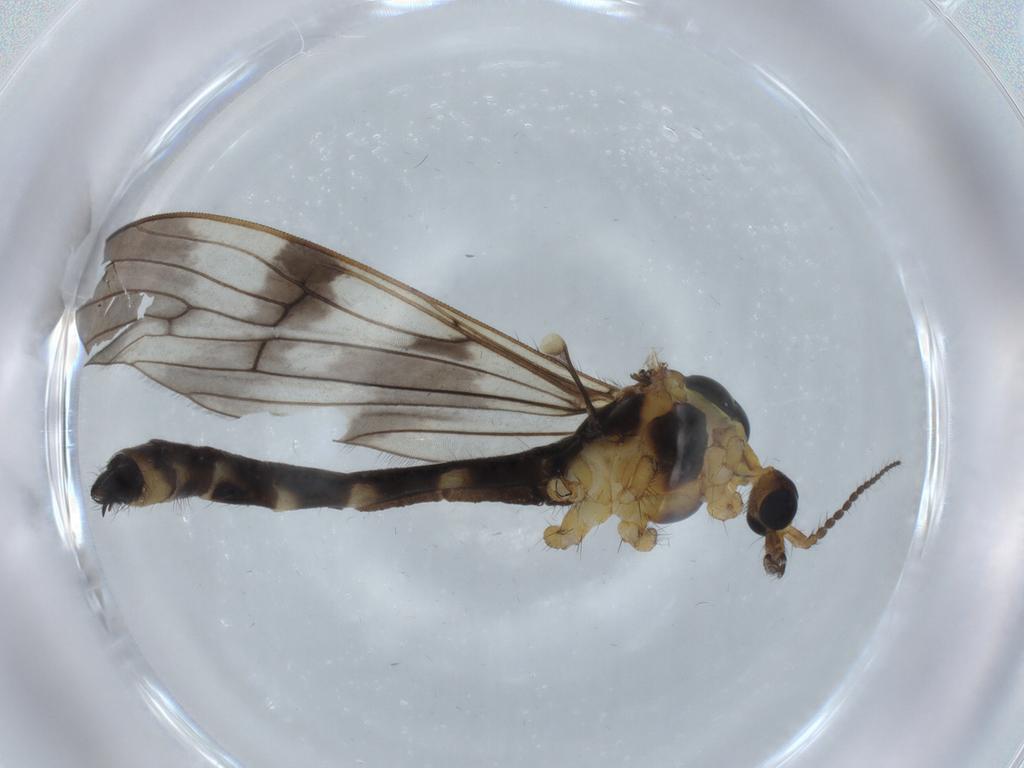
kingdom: Animalia
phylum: Arthropoda
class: Insecta
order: Diptera
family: Limoniidae
